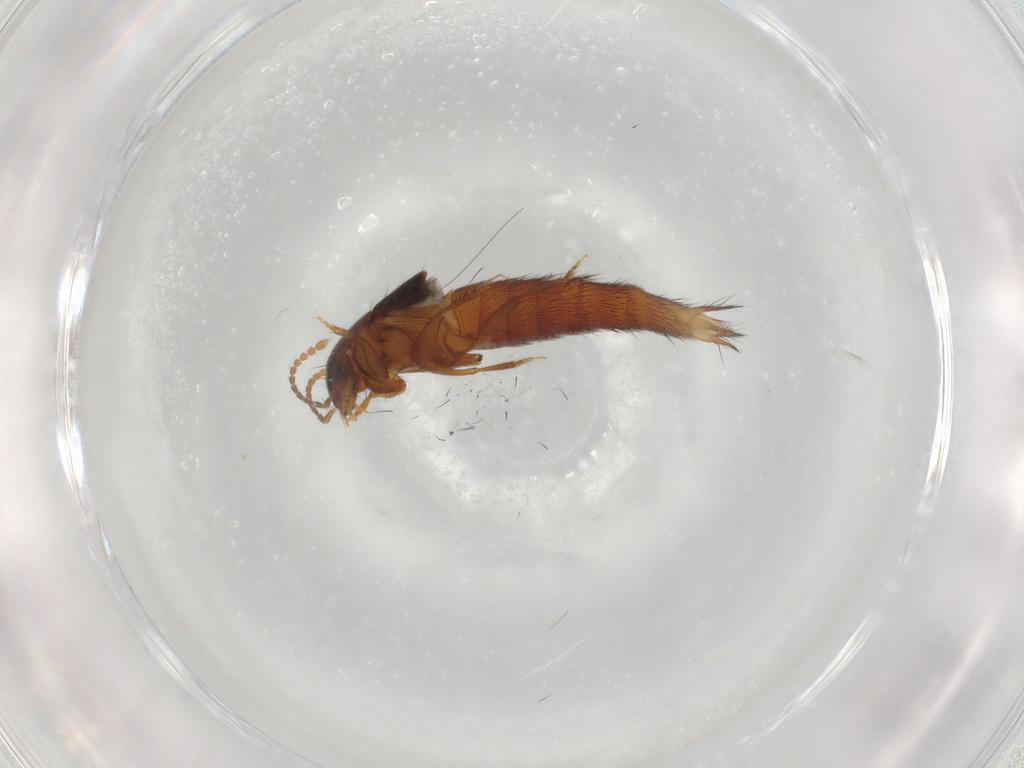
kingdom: Animalia
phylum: Arthropoda
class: Insecta
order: Coleoptera
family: Staphylinidae
